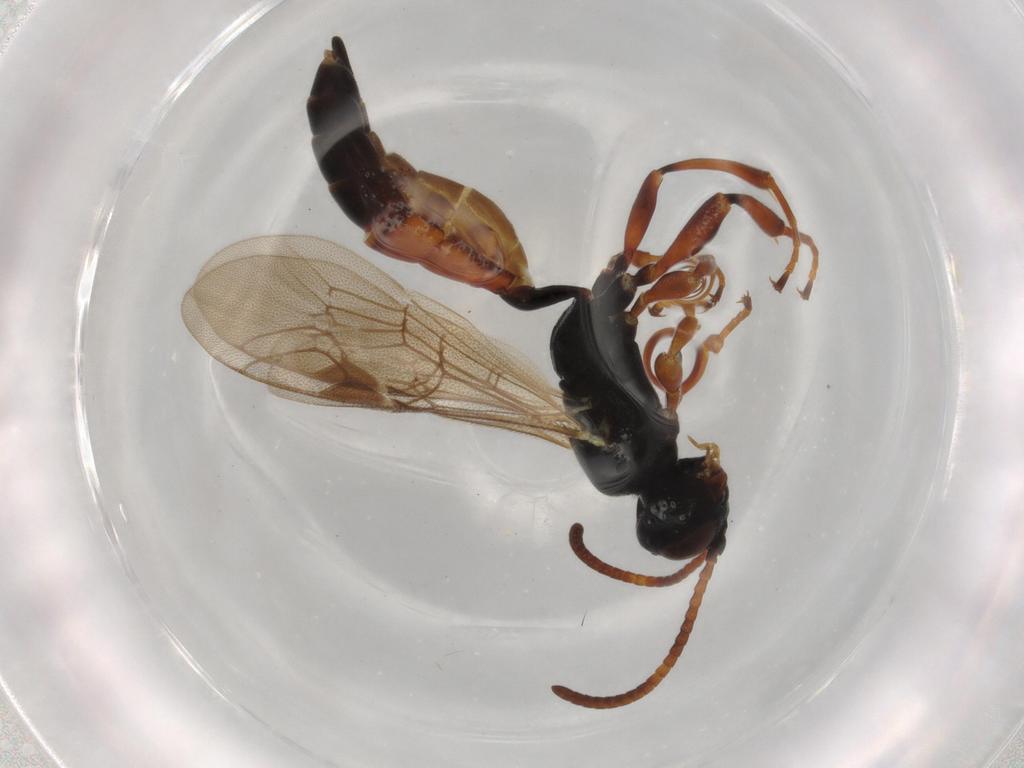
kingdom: Animalia
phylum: Arthropoda
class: Insecta
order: Hymenoptera
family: Ichneumonidae
